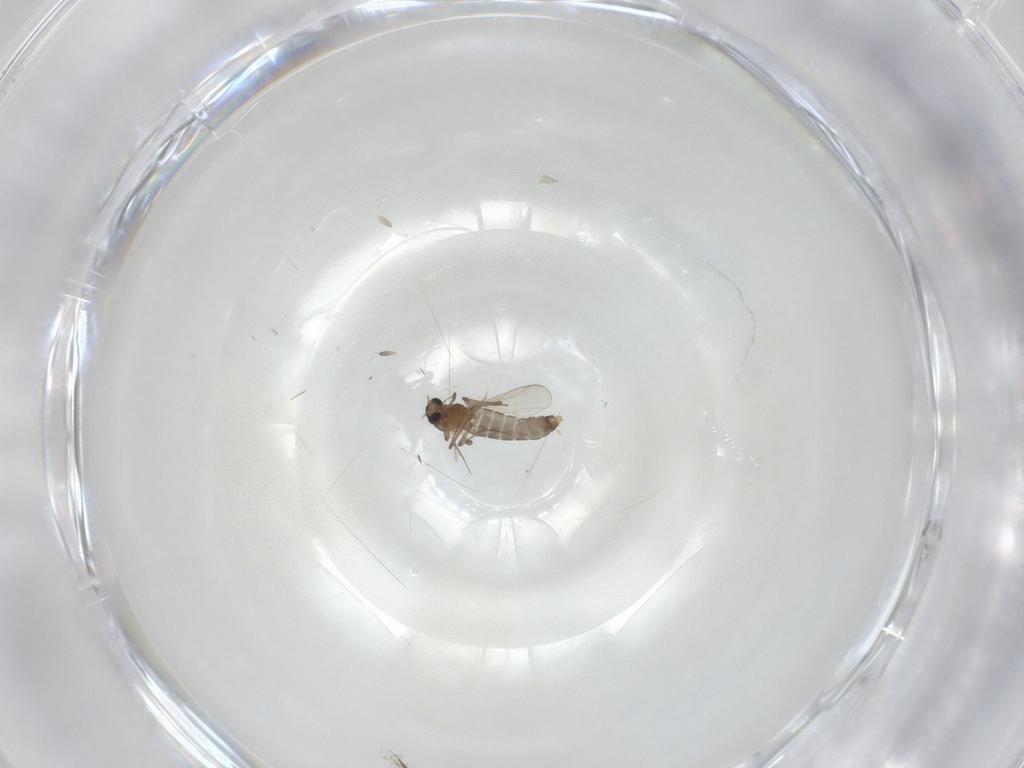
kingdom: Animalia
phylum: Arthropoda
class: Insecta
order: Diptera
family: Chironomidae
